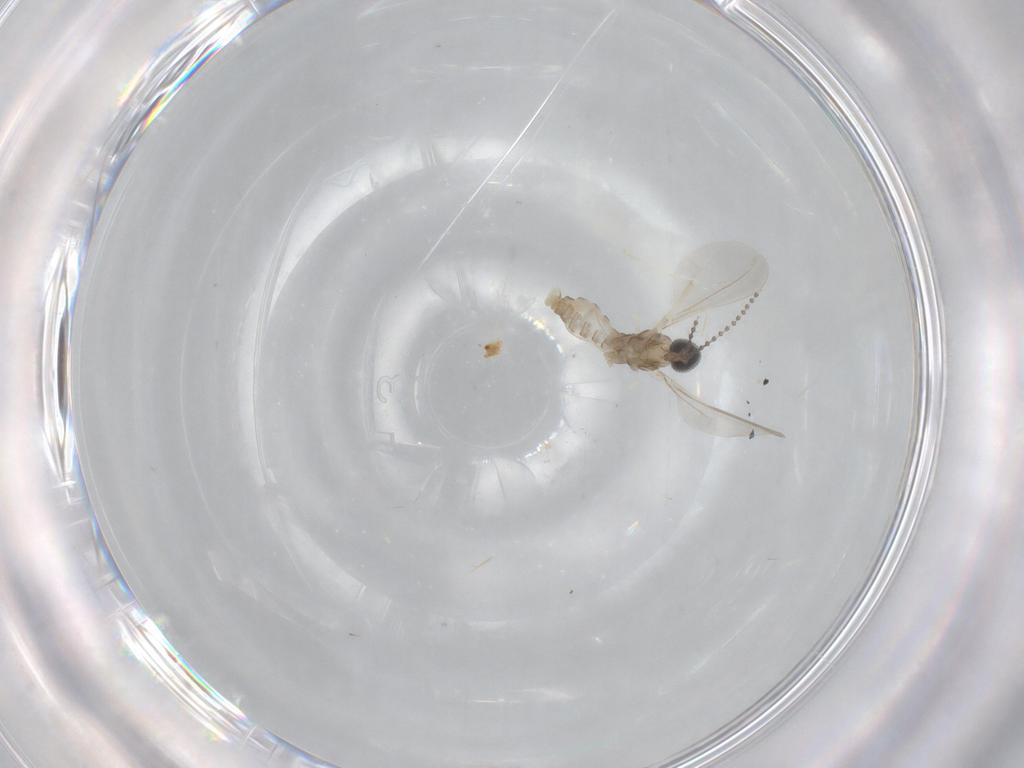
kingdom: Animalia
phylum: Arthropoda
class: Insecta
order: Diptera
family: Cecidomyiidae
